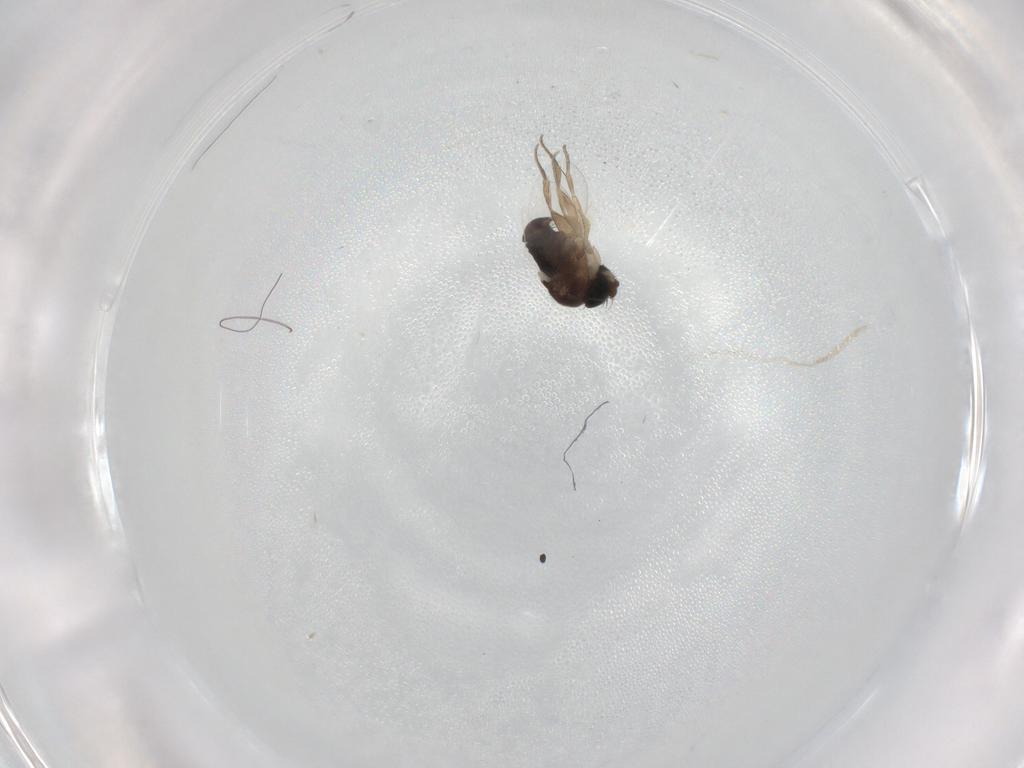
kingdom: Animalia
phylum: Arthropoda
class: Insecta
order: Diptera
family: Phoridae
